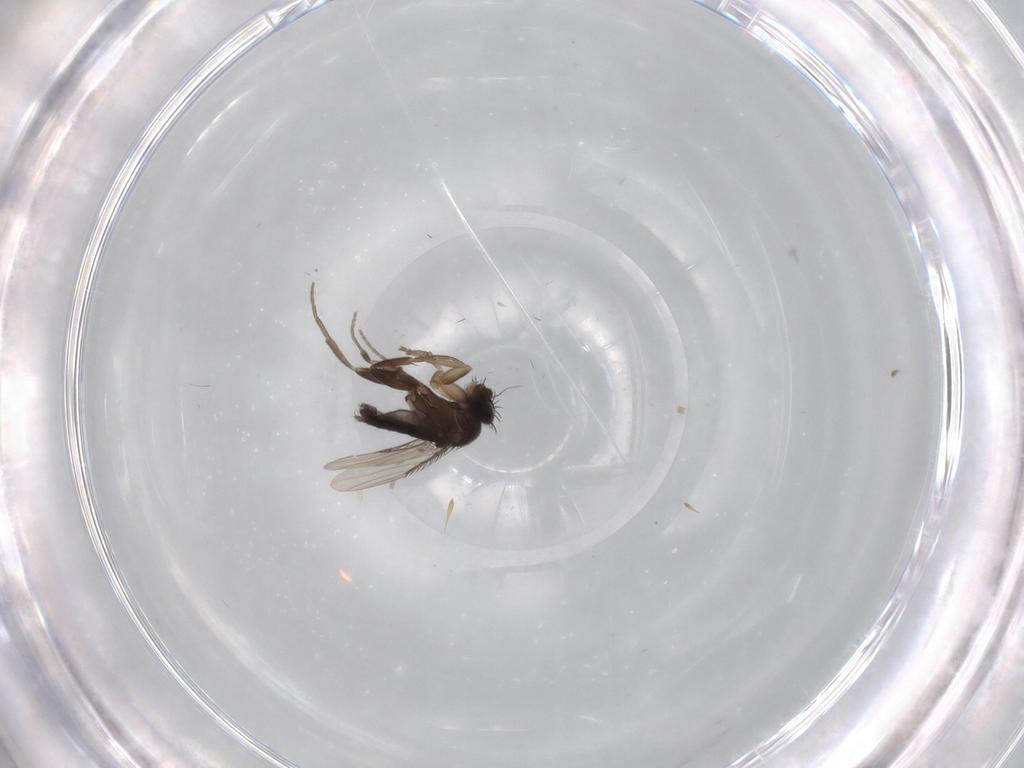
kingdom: Animalia
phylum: Arthropoda
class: Insecta
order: Diptera
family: Phoridae
